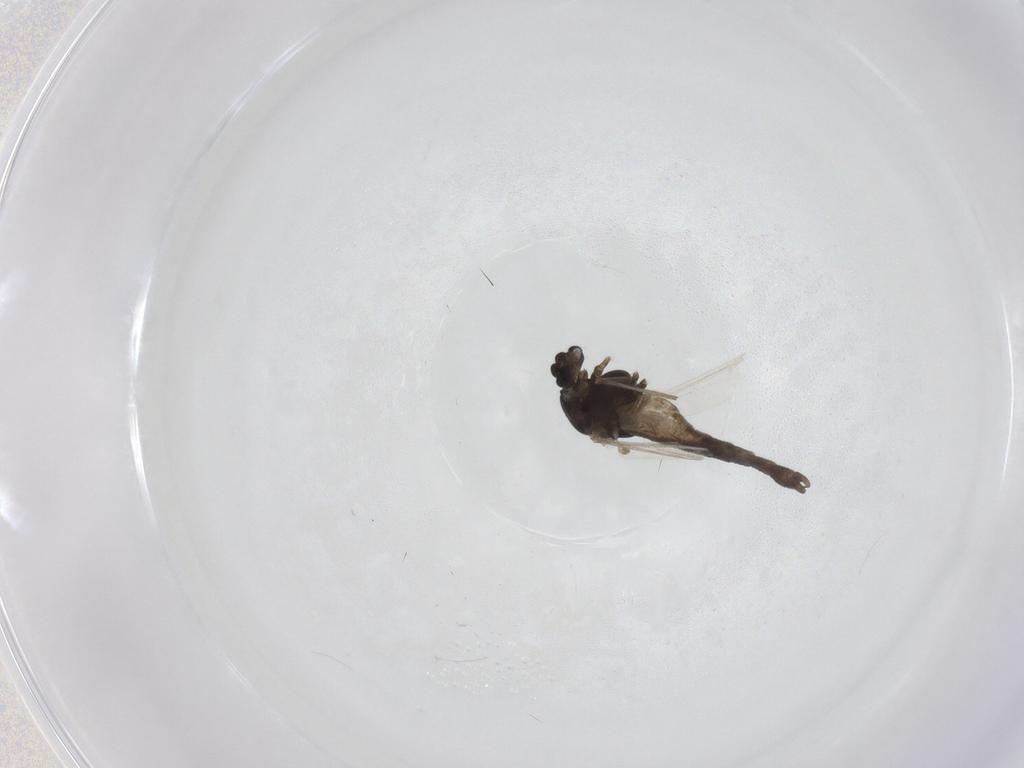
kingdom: Animalia
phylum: Arthropoda
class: Insecta
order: Diptera
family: Chironomidae
